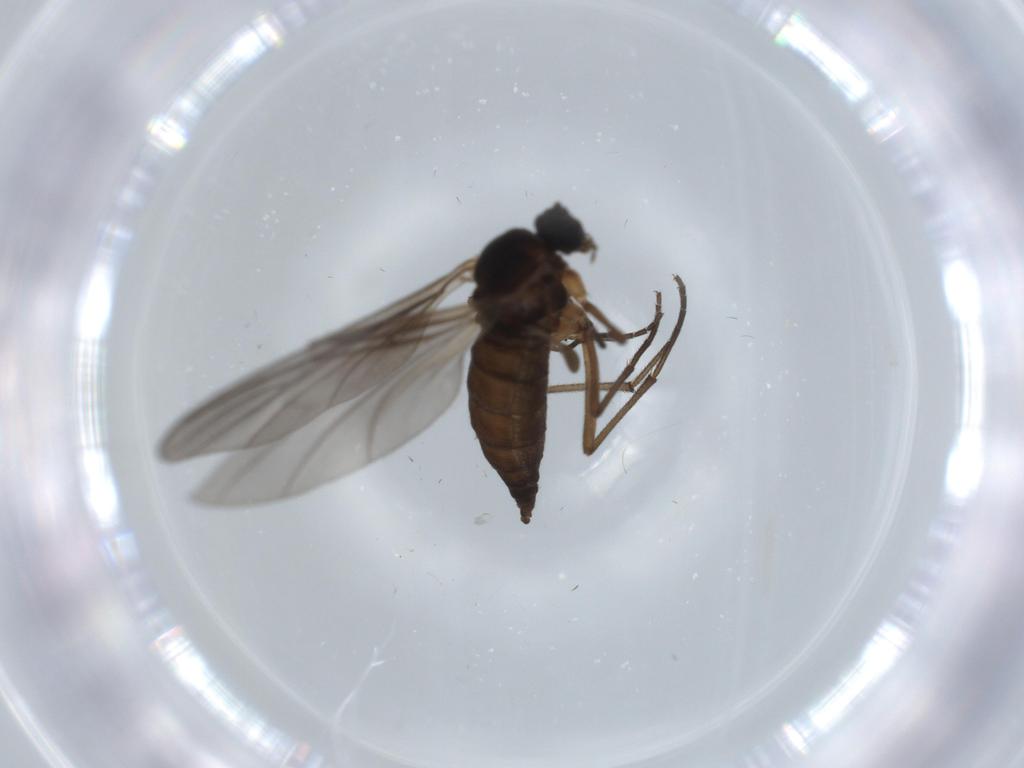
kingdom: Animalia
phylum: Arthropoda
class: Insecta
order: Diptera
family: Sciaridae
